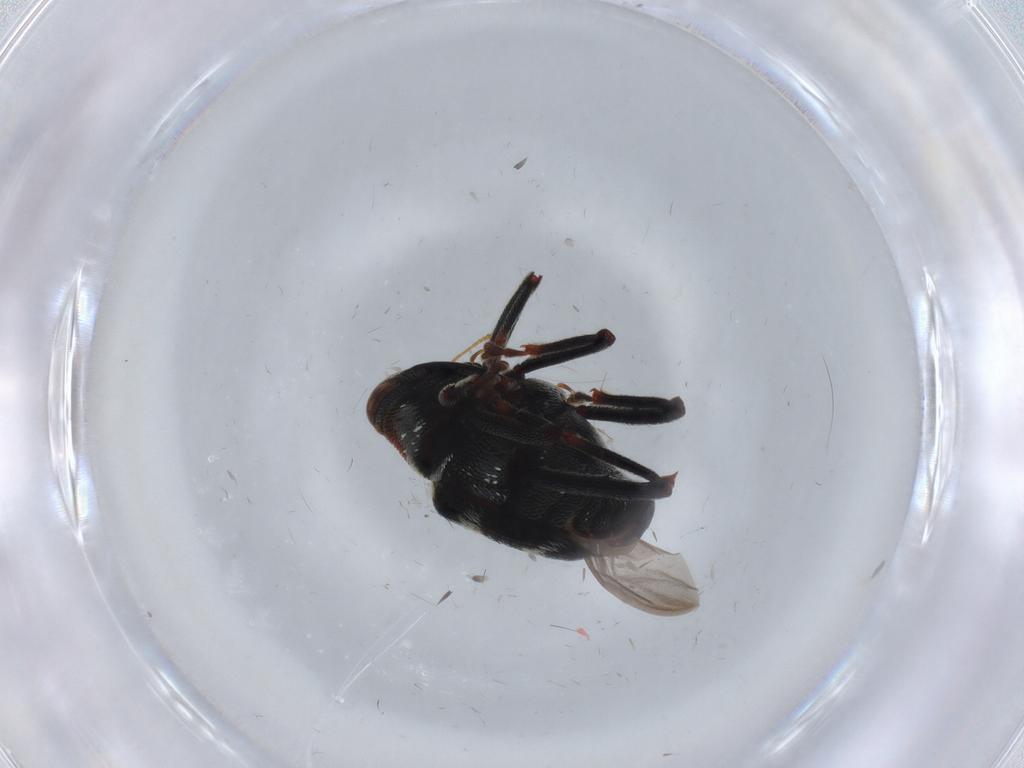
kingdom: Animalia
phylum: Arthropoda
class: Insecta
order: Coleoptera
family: Curculionidae
